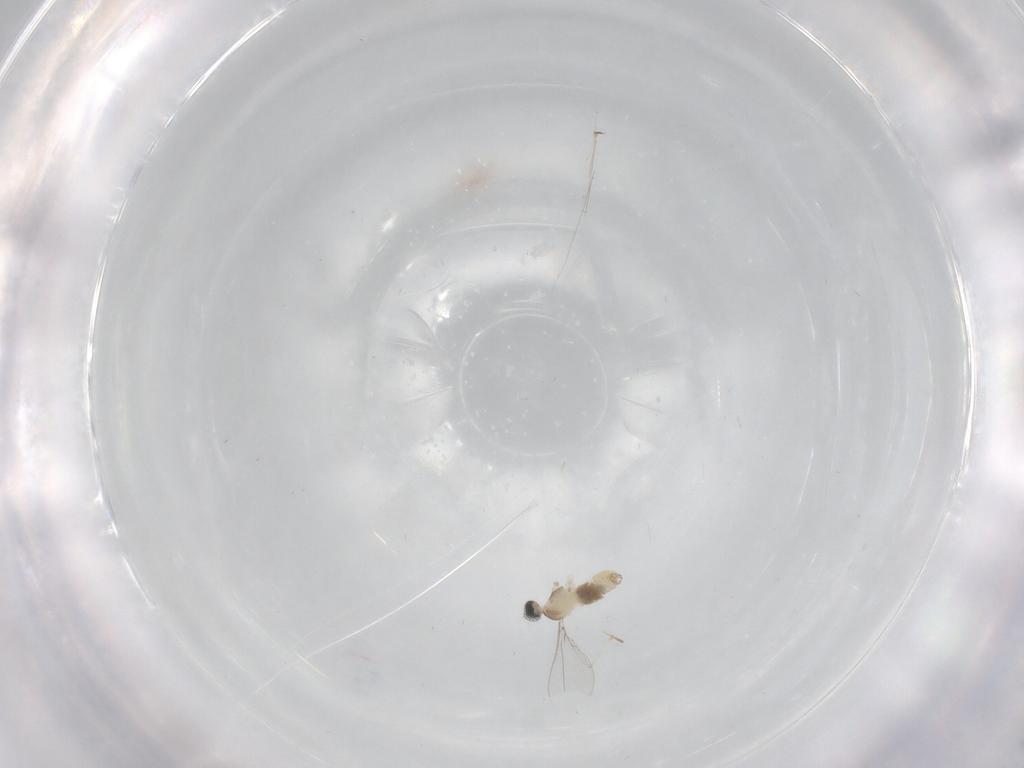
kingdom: Animalia
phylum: Arthropoda
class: Insecta
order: Diptera
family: Cecidomyiidae
